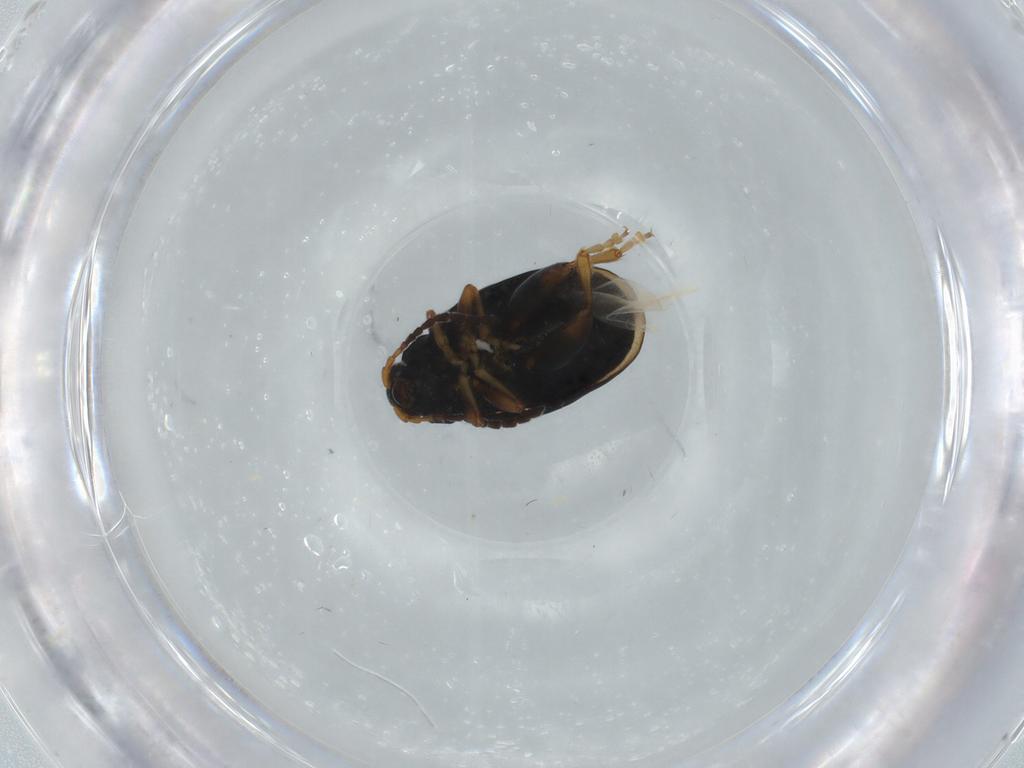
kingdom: Animalia
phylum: Arthropoda
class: Insecta
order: Coleoptera
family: Chrysomelidae
